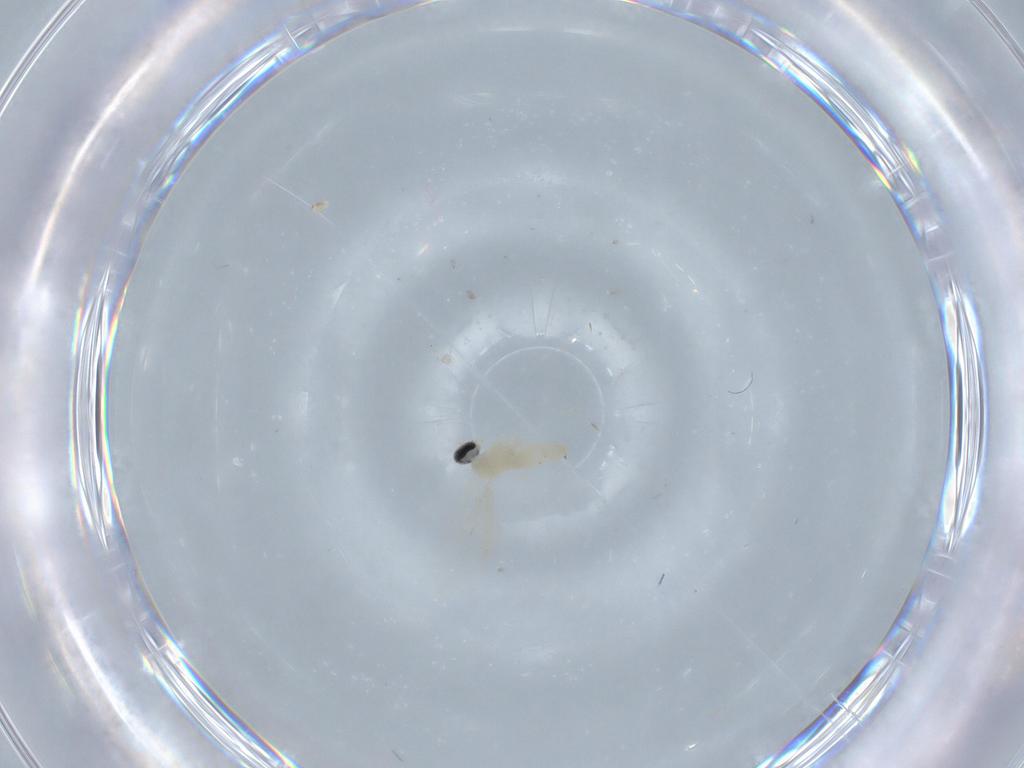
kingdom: Animalia
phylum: Arthropoda
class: Insecta
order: Diptera
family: Cecidomyiidae
